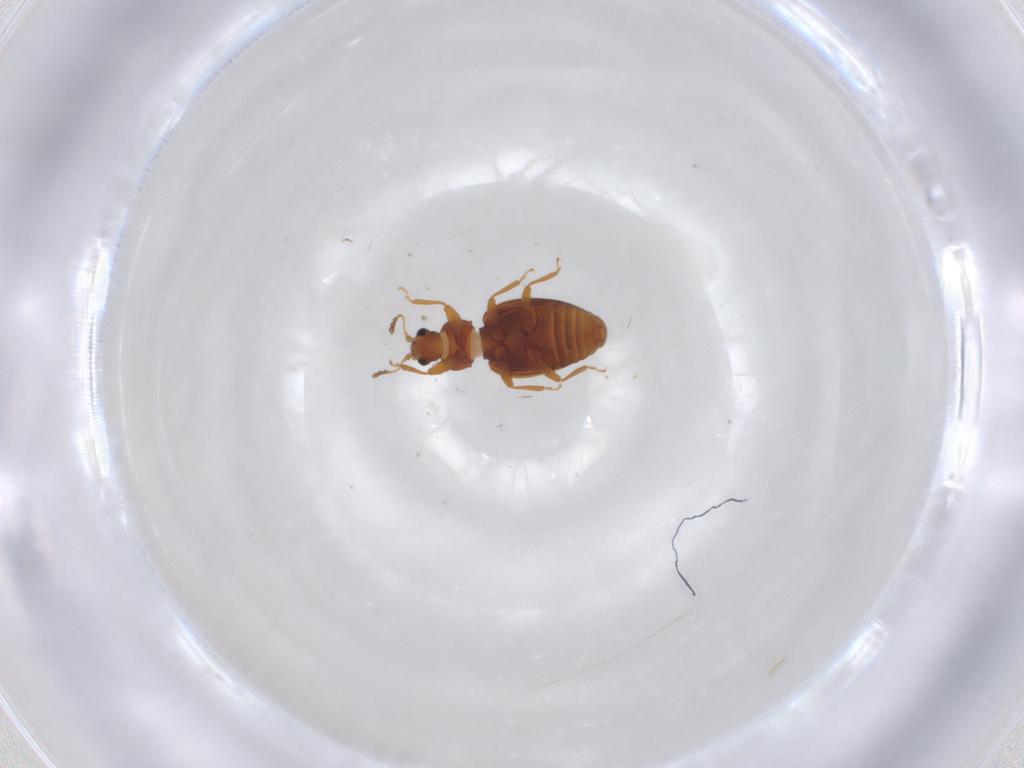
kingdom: Animalia
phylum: Arthropoda
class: Insecta
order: Coleoptera
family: Latridiidae
